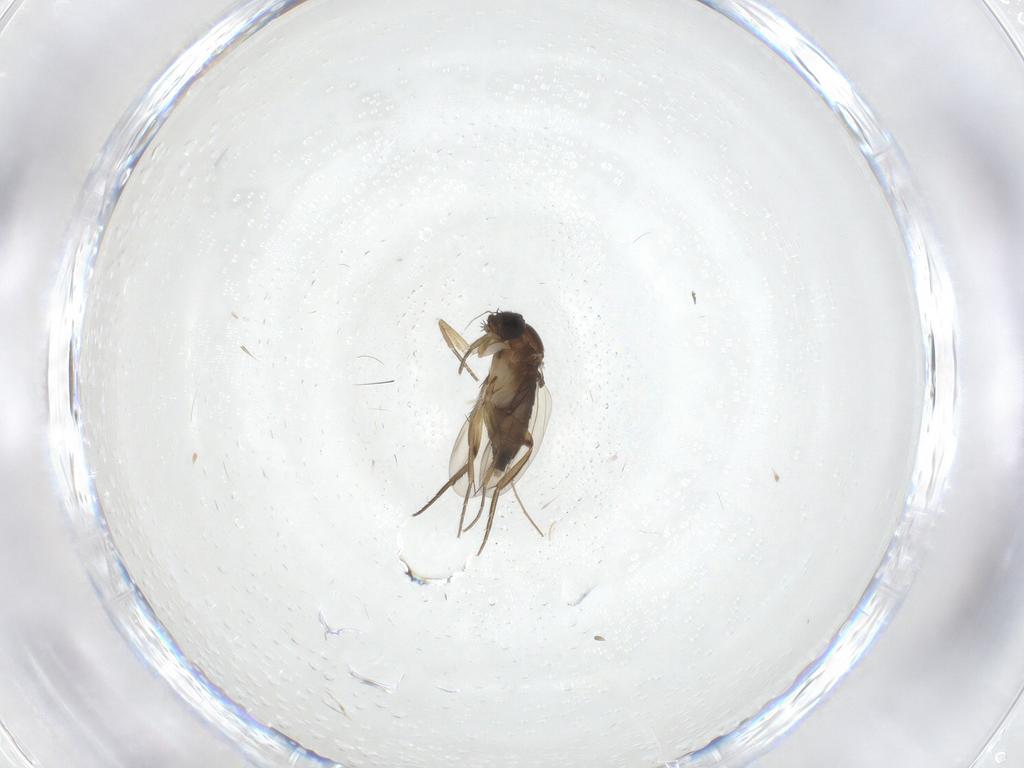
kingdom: Animalia
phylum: Arthropoda
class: Insecta
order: Diptera
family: Phoridae
